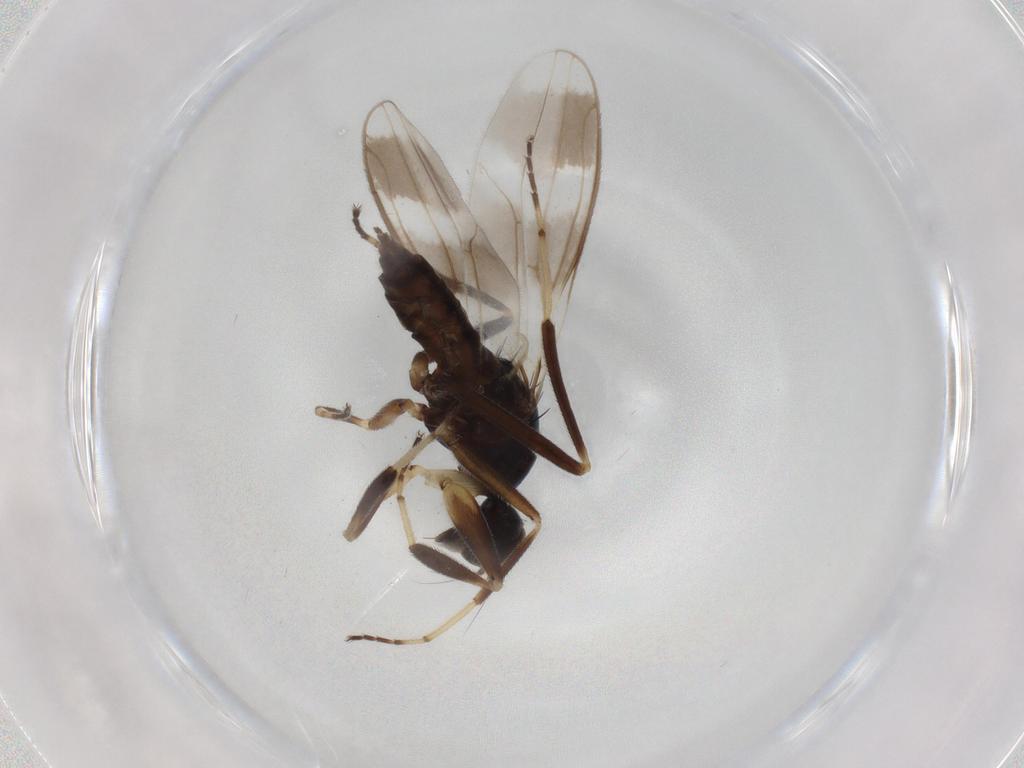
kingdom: Animalia
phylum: Arthropoda
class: Insecta
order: Diptera
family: Hybotidae
